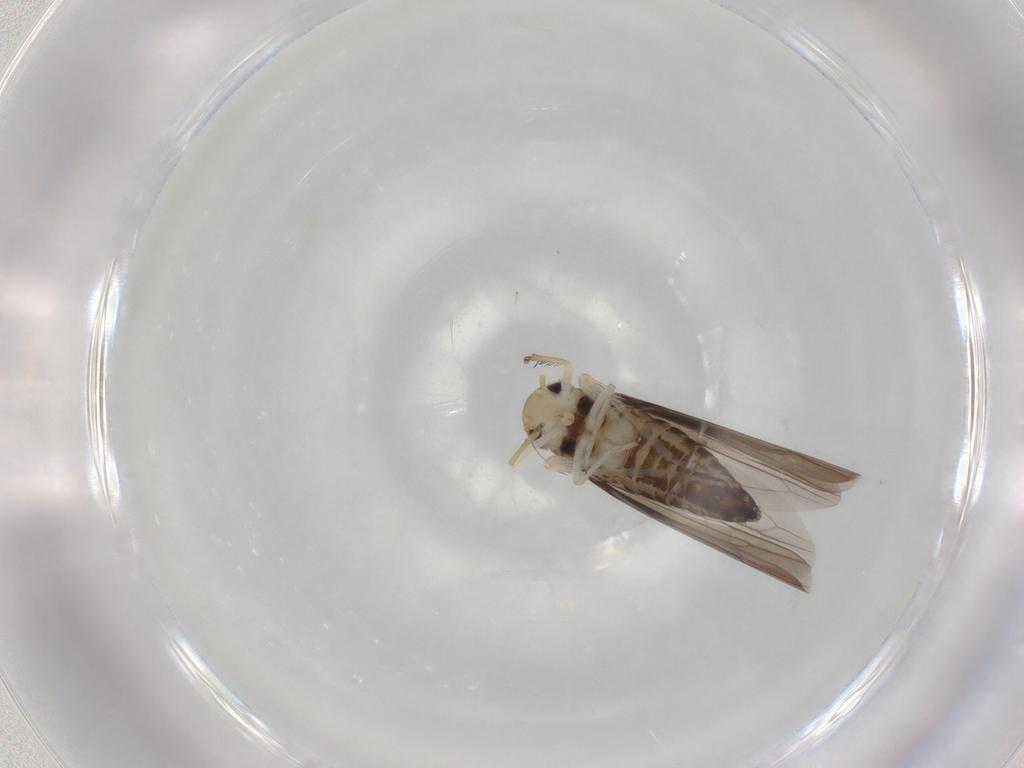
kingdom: Animalia
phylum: Arthropoda
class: Insecta
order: Hemiptera
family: Cicadellidae
